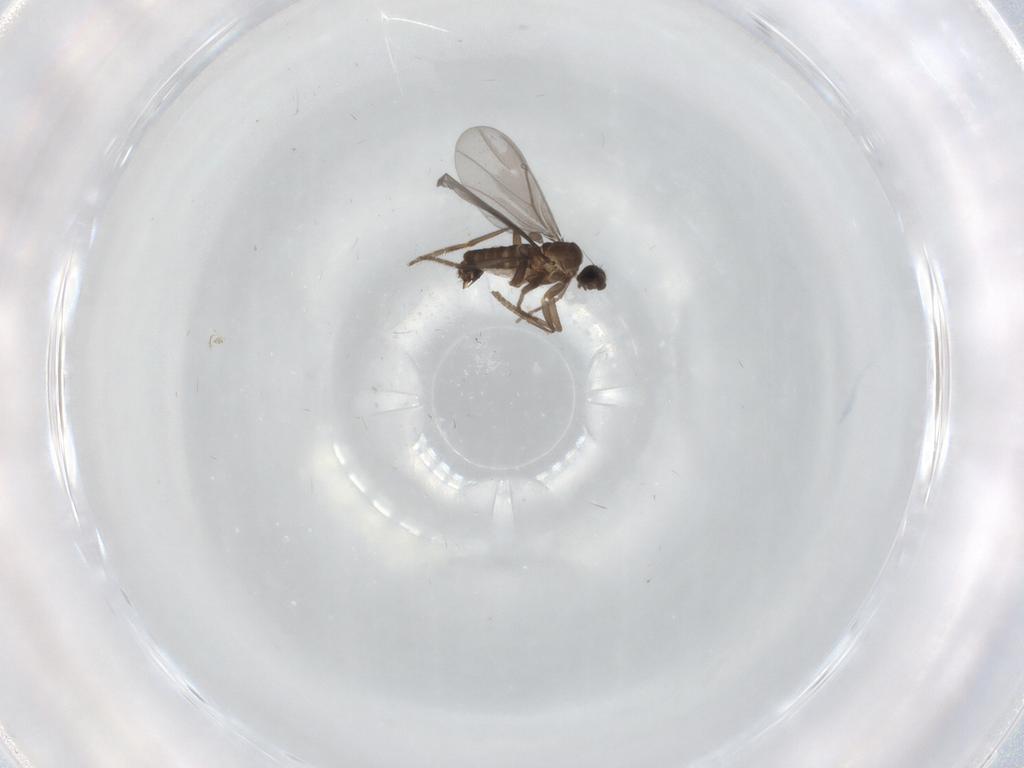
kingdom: Animalia
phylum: Arthropoda
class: Insecta
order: Diptera
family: Phoridae
